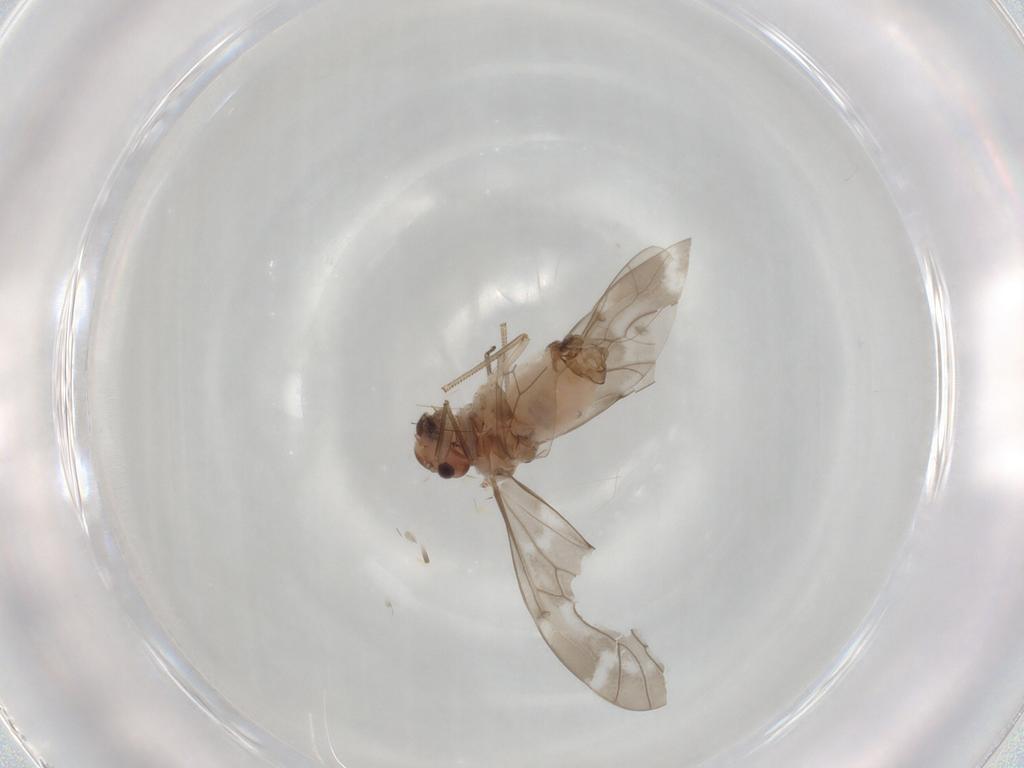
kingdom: Animalia
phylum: Arthropoda
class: Insecta
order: Psocodea
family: Peripsocidae
